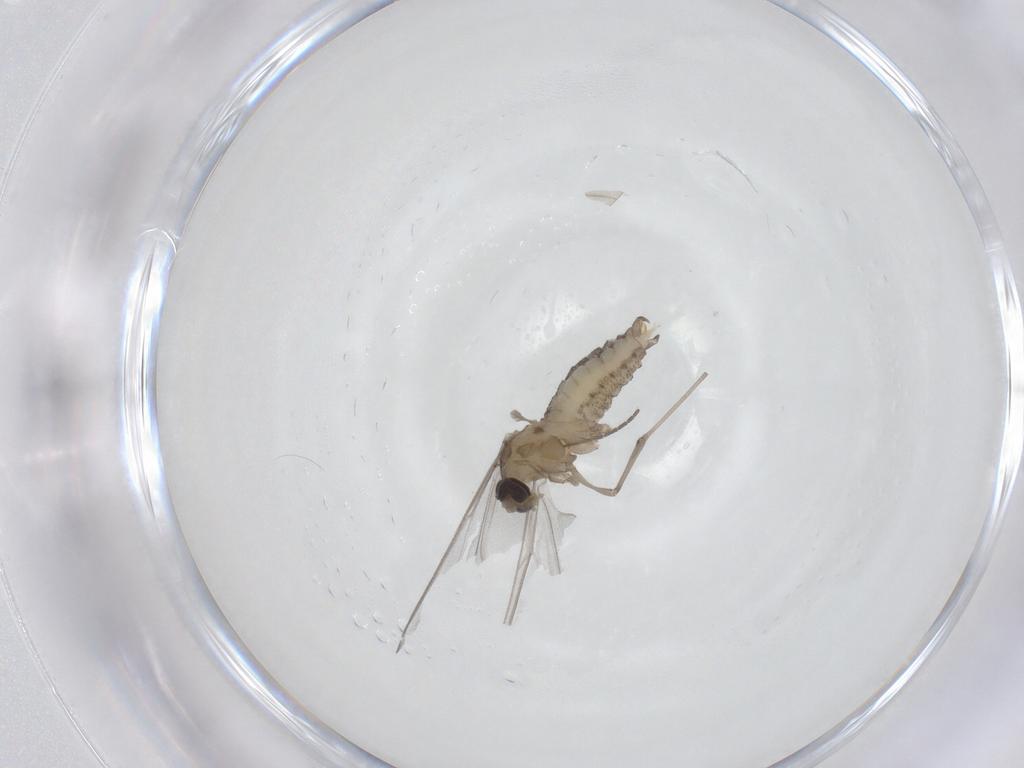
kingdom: Animalia
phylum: Arthropoda
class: Insecta
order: Diptera
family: Cecidomyiidae
